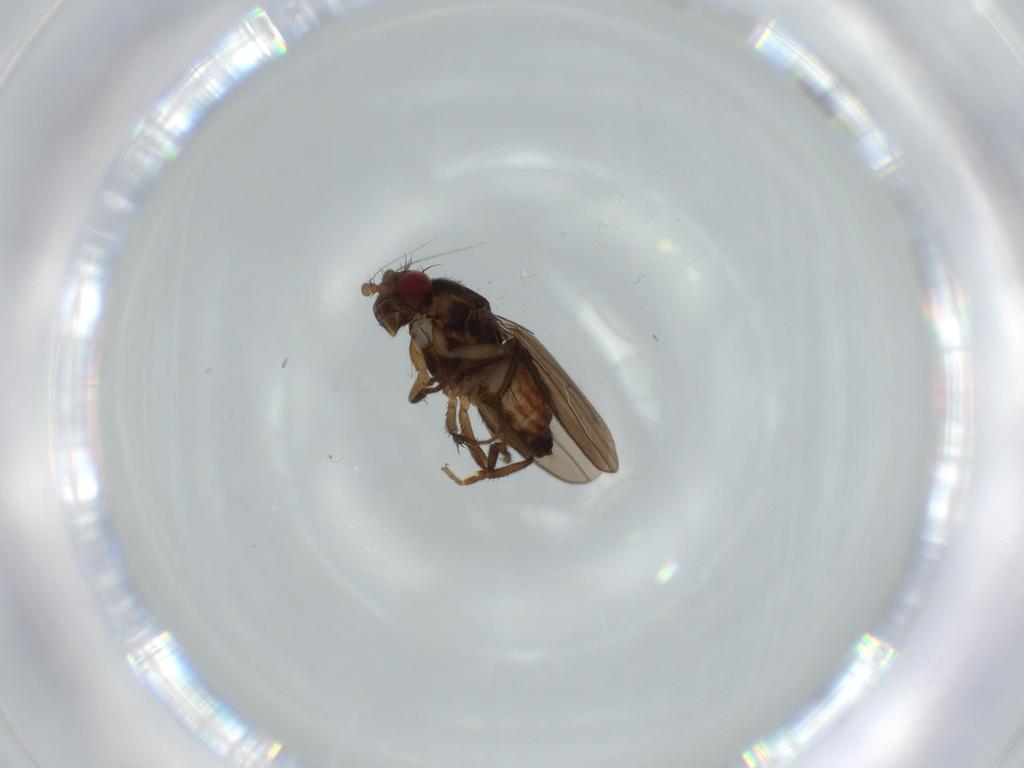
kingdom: Animalia
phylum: Arthropoda
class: Insecta
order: Diptera
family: Sphaeroceridae
